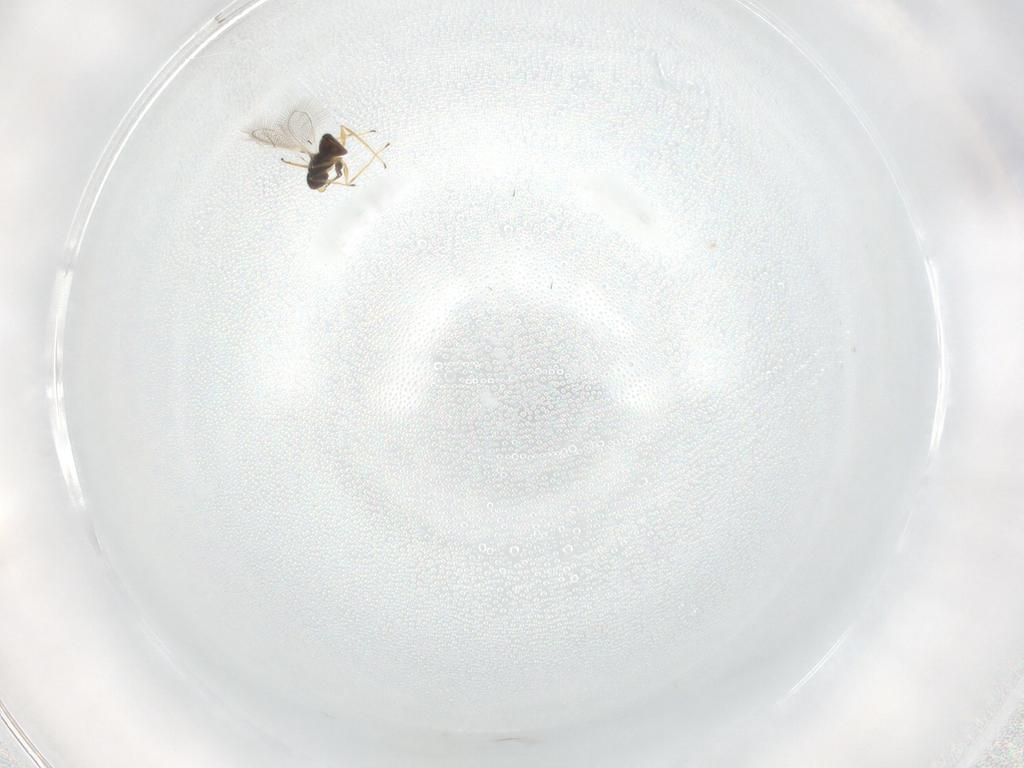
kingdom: Animalia
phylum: Arthropoda
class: Insecta
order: Hymenoptera
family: Mymaridae
